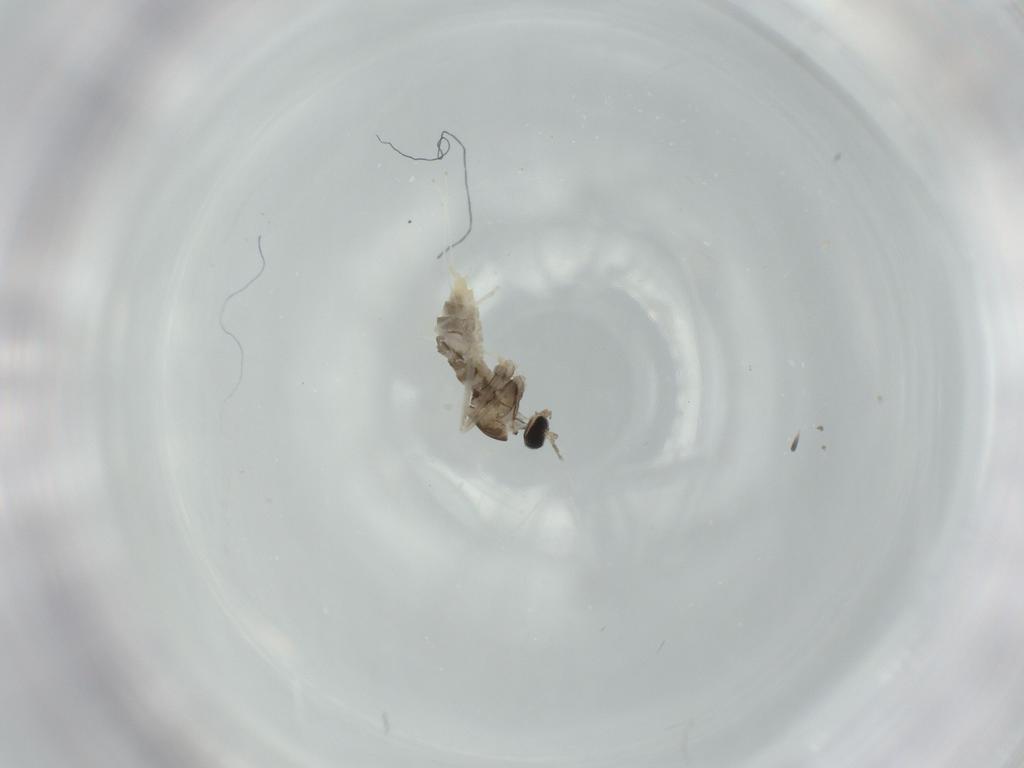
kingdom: Animalia
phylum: Arthropoda
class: Insecta
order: Diptera
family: Cecidomyiidae
